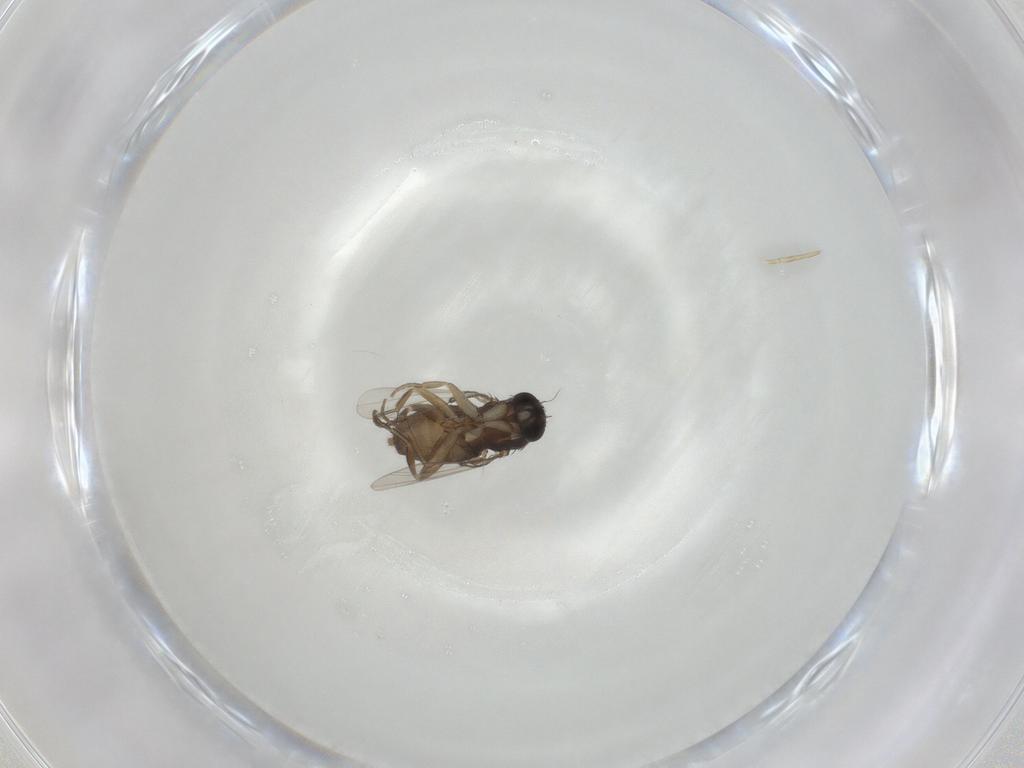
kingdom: Animalia
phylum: Arthropoda
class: Insecta
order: Diptera
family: Phoridae
